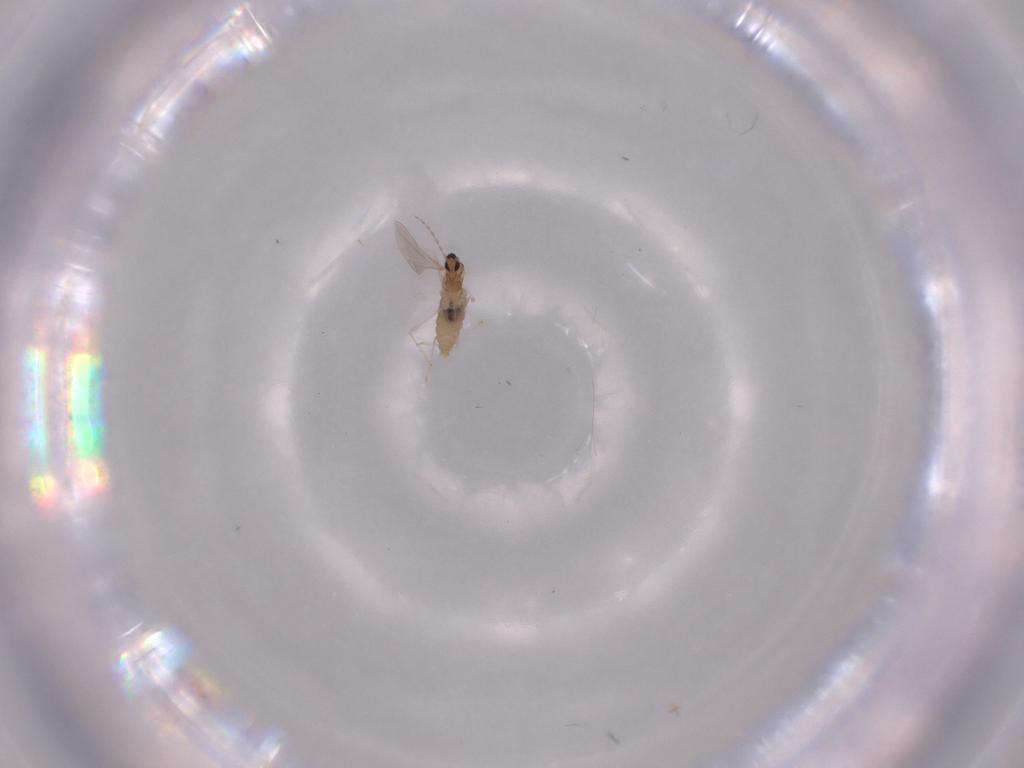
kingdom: Animalia
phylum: Arthropoda
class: Insecta
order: Diptera
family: Cecidomyiidae
